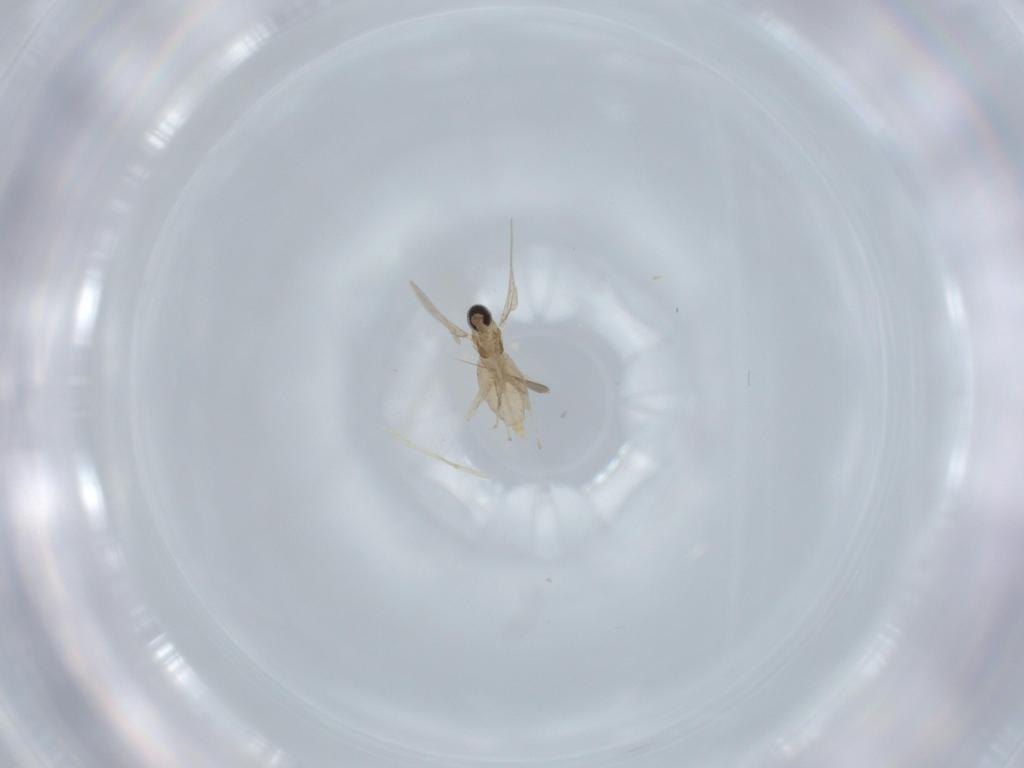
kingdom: Animalia
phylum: Arthropoda
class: Insecta
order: Diptera
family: Cecidomyiidae
